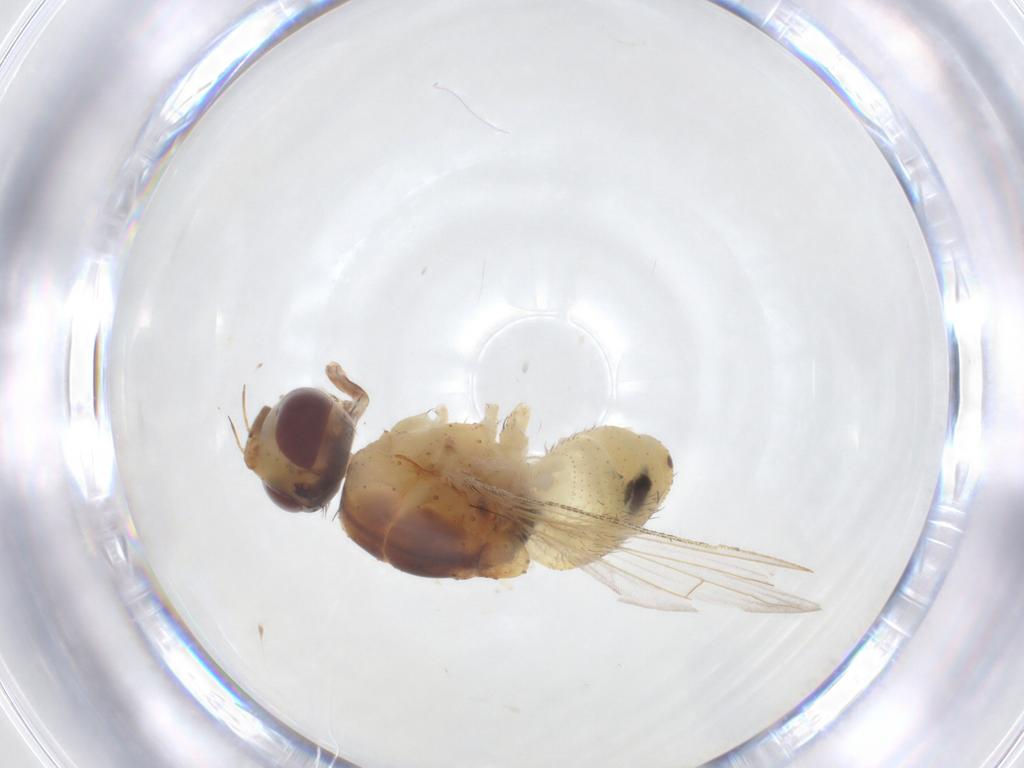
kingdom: Animalia
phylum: Arthropoda
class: Insecta
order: Diptera
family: Muscidae
